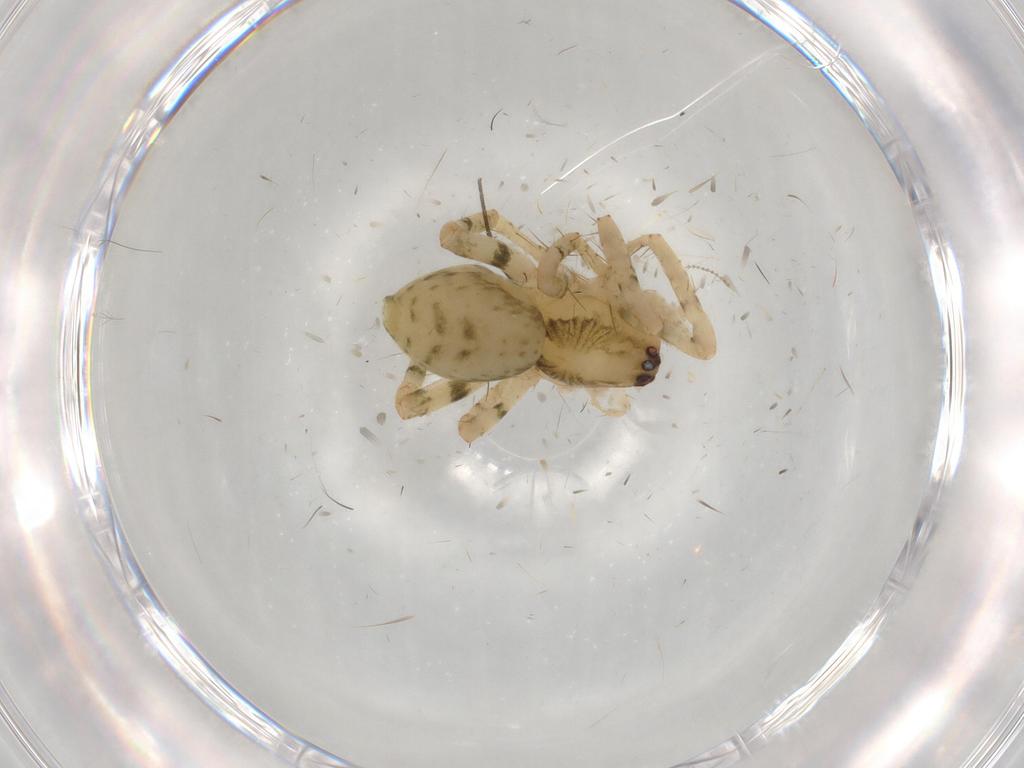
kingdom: Animalia
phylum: Arthropoda
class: Arachnida
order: Araneae
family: Anyphaenidae
